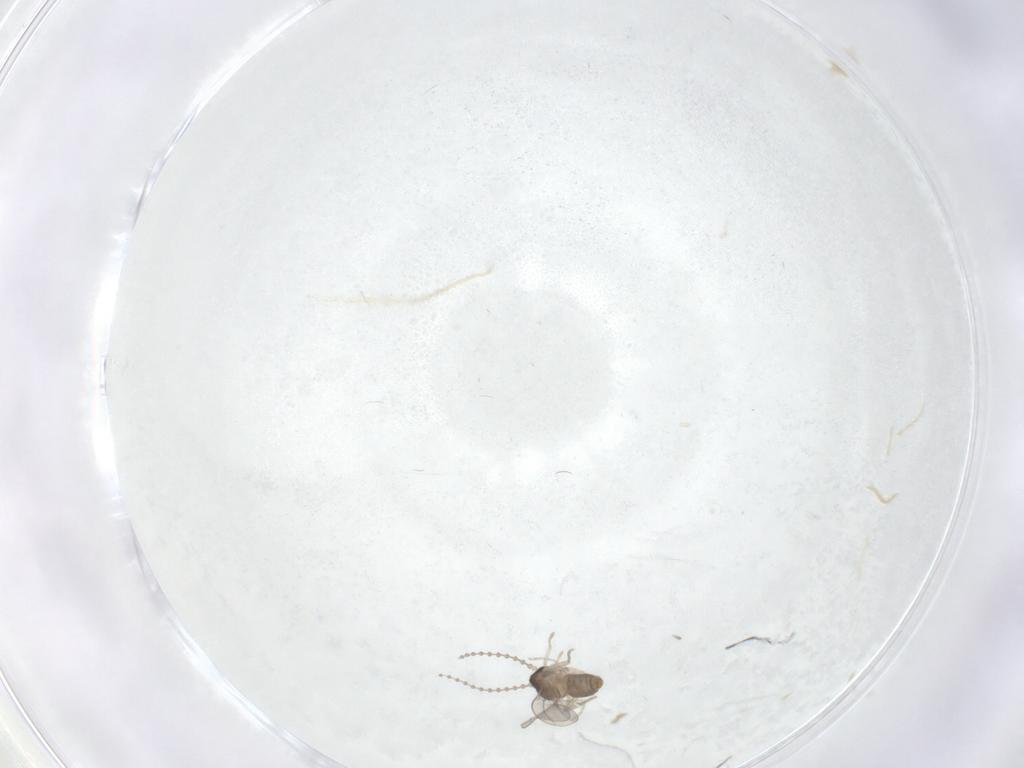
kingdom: Animalia
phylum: Arthropoda
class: Insecta
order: Diptera
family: Cecidomyiidae
